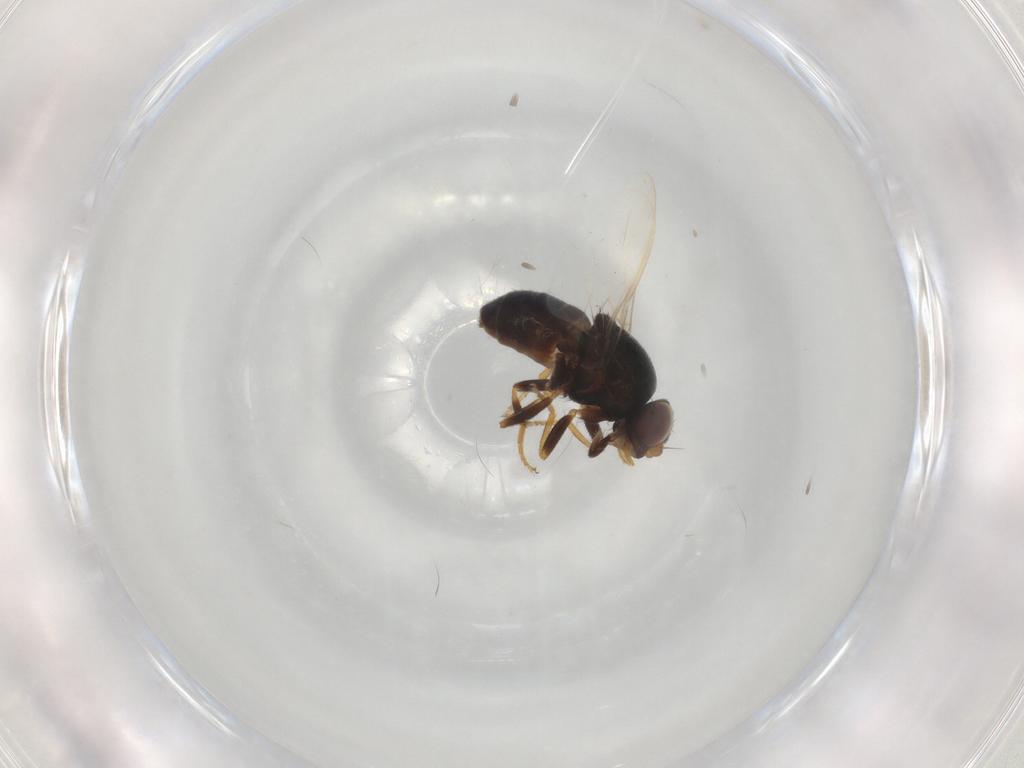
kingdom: Animalia
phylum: Arthropoda
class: Insecta
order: Diptera
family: Chloropidae
